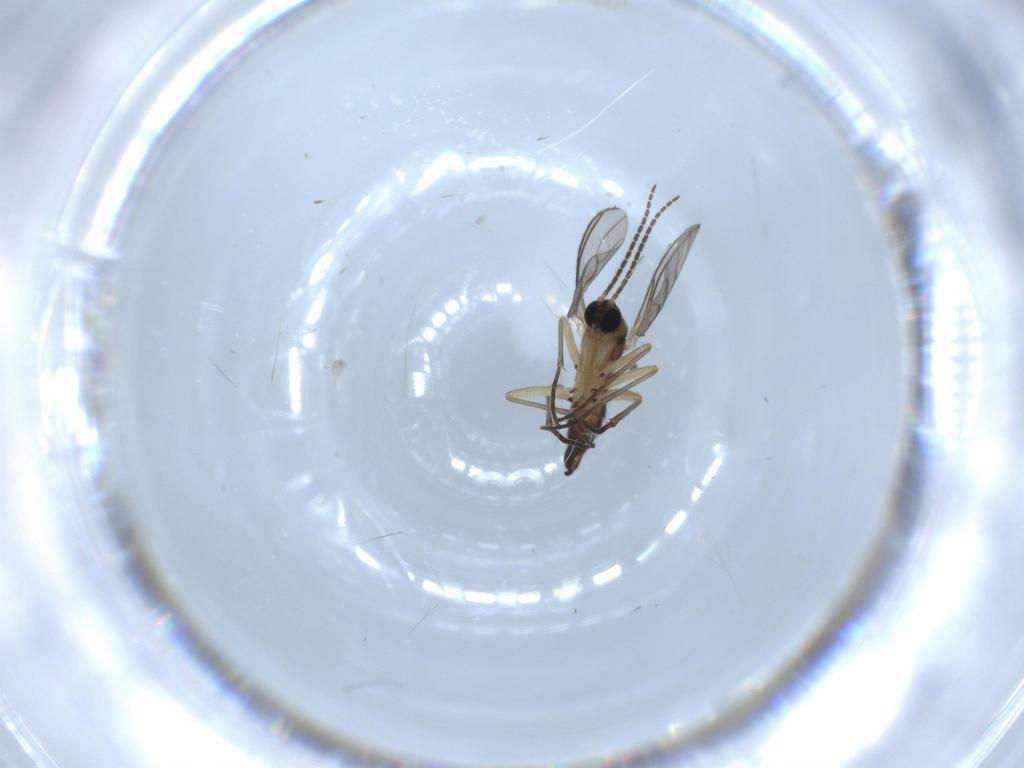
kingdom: Animalia
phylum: Arthropoda
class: Insecta
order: Diptera
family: Sciaridae
